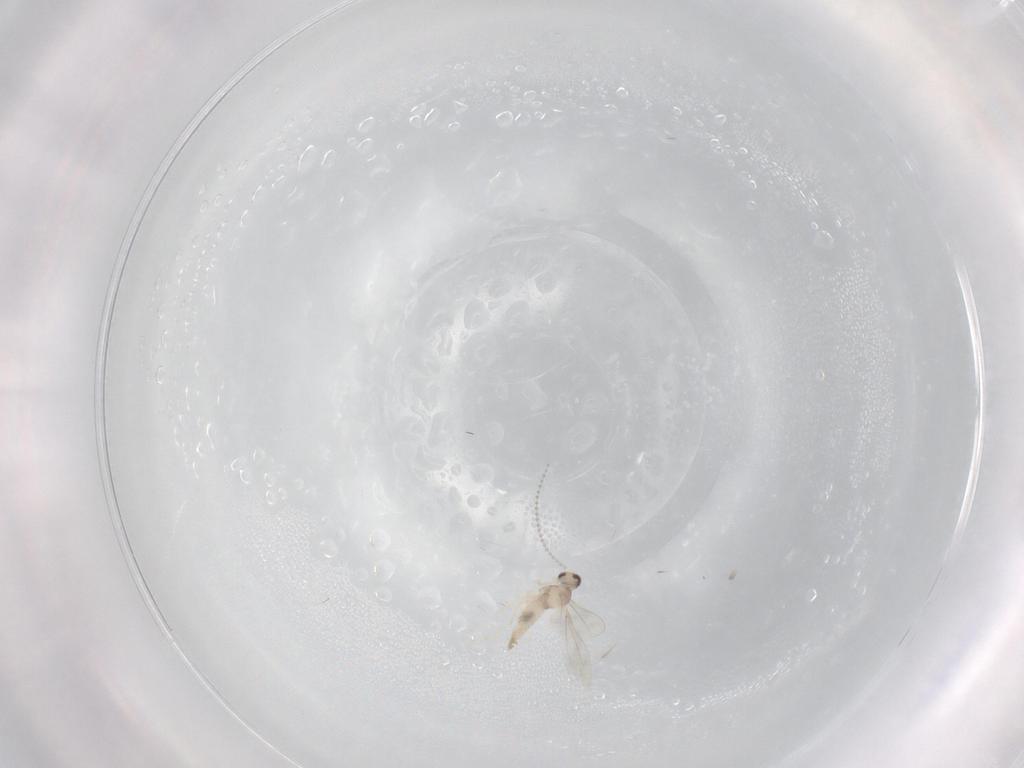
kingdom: Animalia
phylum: Arthropoda
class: Insecta
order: Diptera
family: Cecidomyiidae
